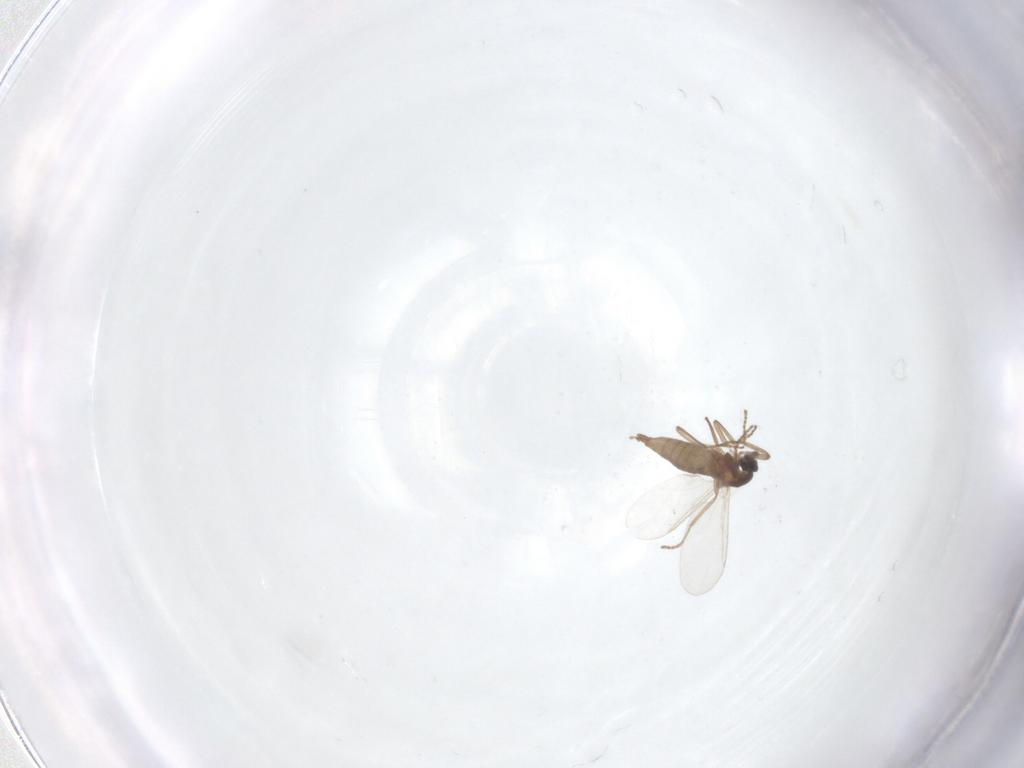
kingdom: Animalia
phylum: Arthropoda
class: Insecta
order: Diptera
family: Cecidomyiidae
